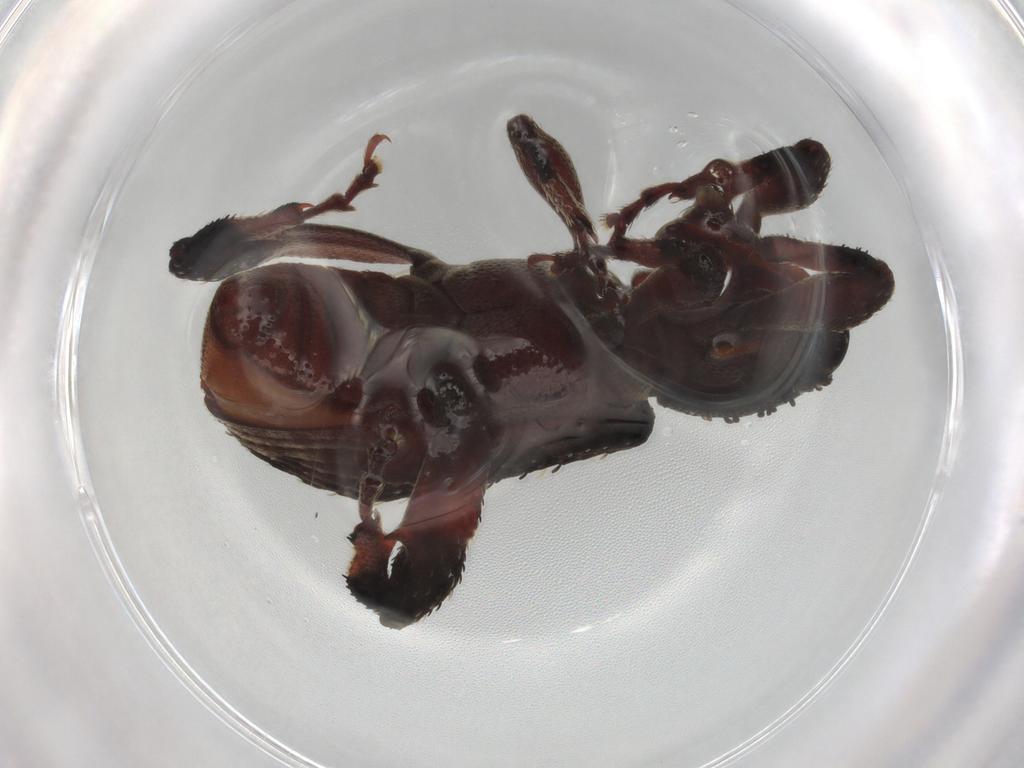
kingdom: Animalia
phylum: Arthropoda
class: Insecta
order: Coleoptera
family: Curculionidae
